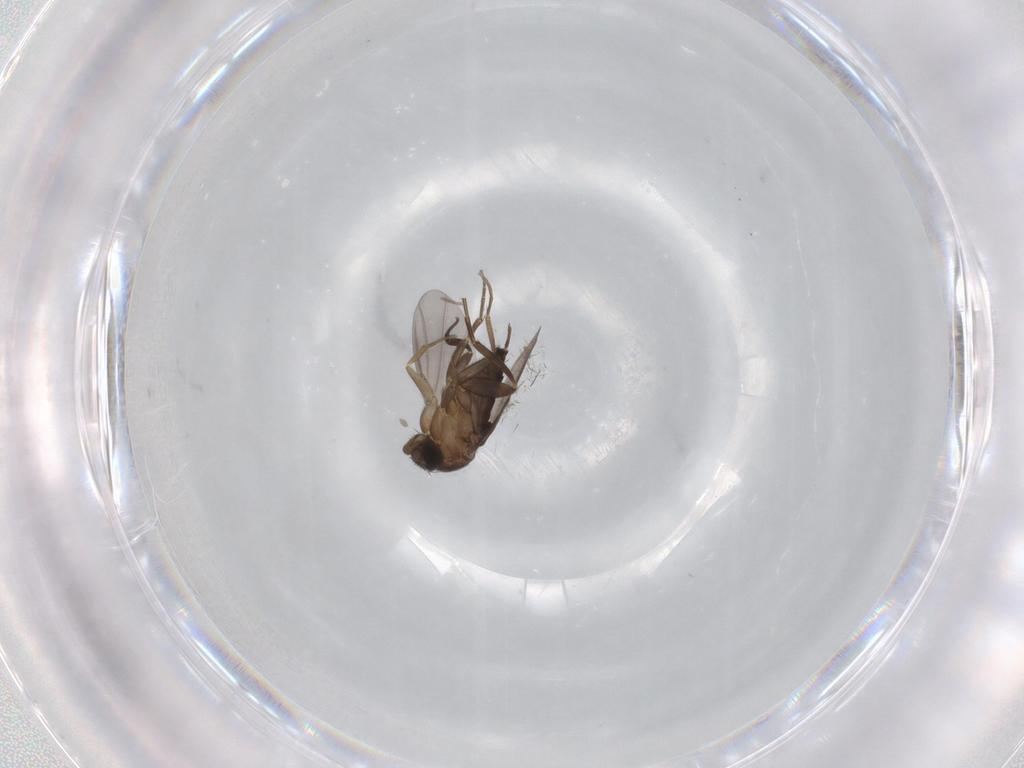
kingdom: Animalia
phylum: Arthropoda
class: Insecta
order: Diptera
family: Phoridae
